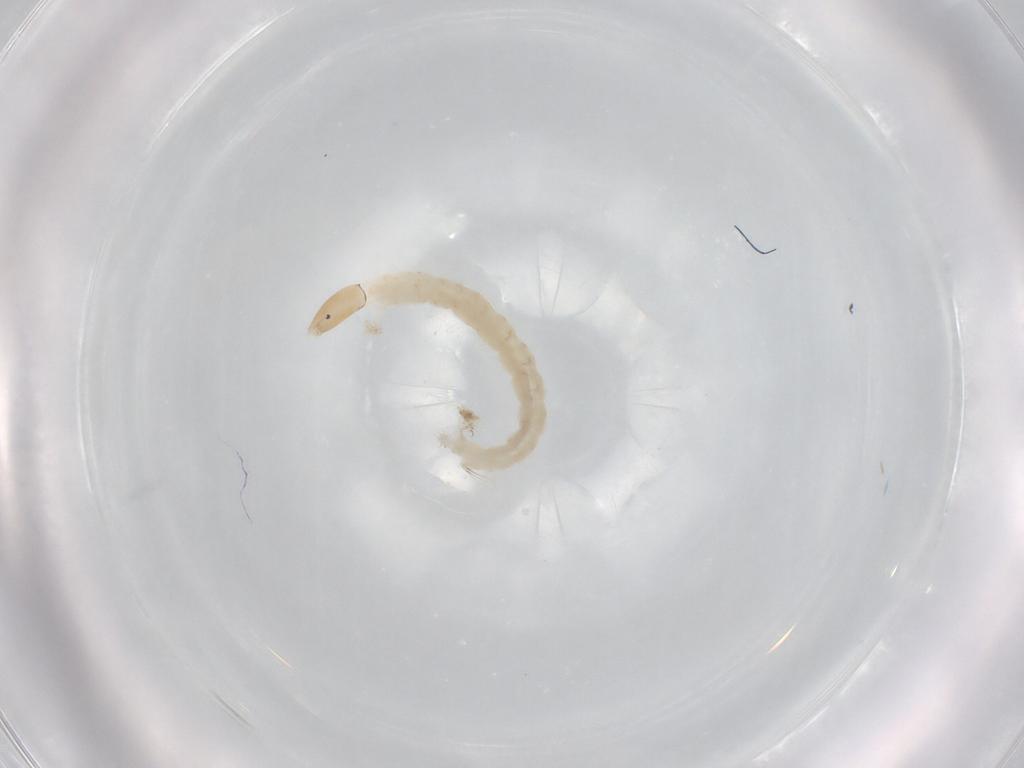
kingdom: Animalia
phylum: Arthropoda
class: Insecta
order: Diptera
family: Chironomidae
